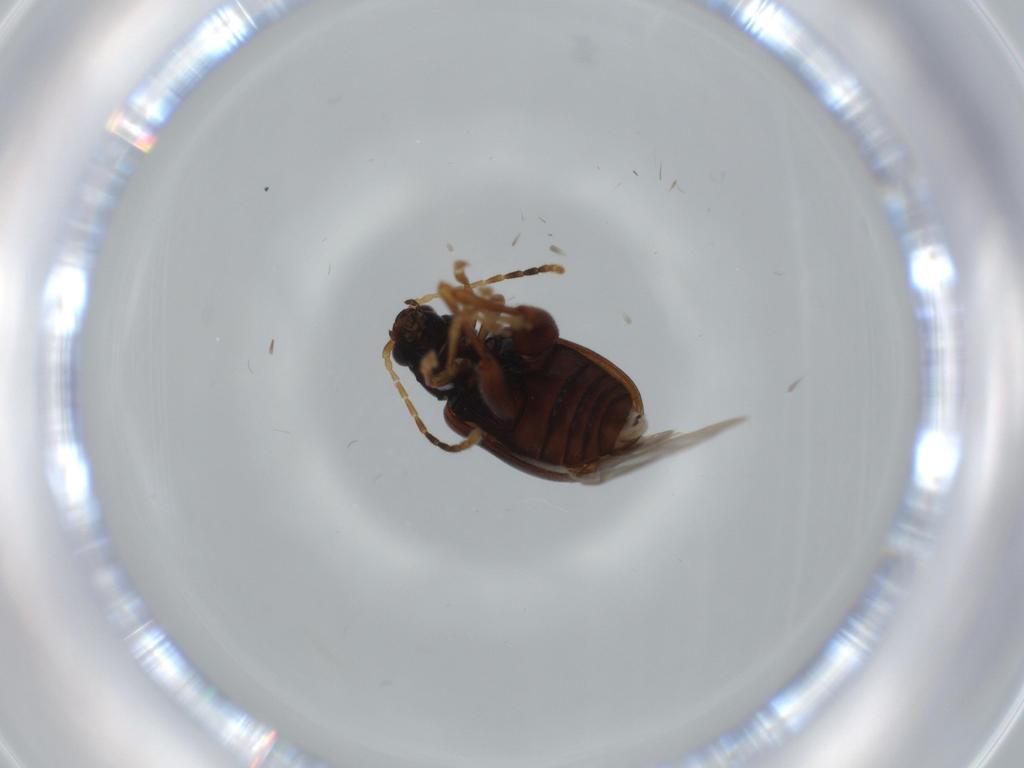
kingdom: Animalia
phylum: Arthropoda
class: Insecta
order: Coleoptera
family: Chrysomelidae
